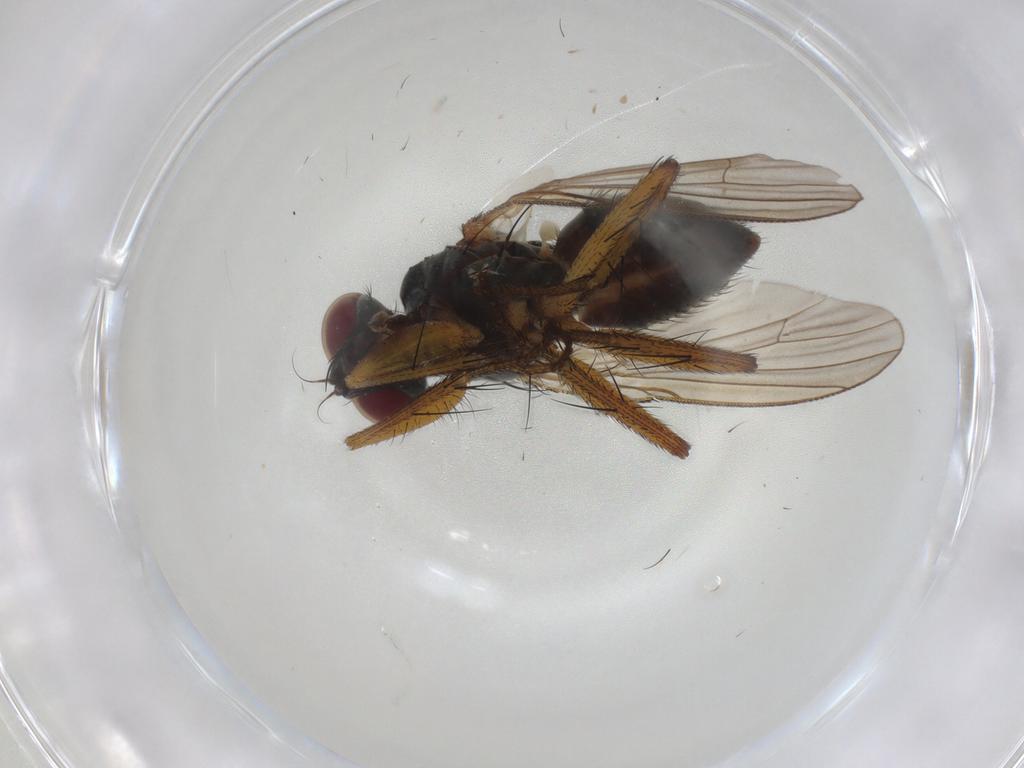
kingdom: Animalia
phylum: Arthropoda
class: Insecta
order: Diptera
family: Muscidae
